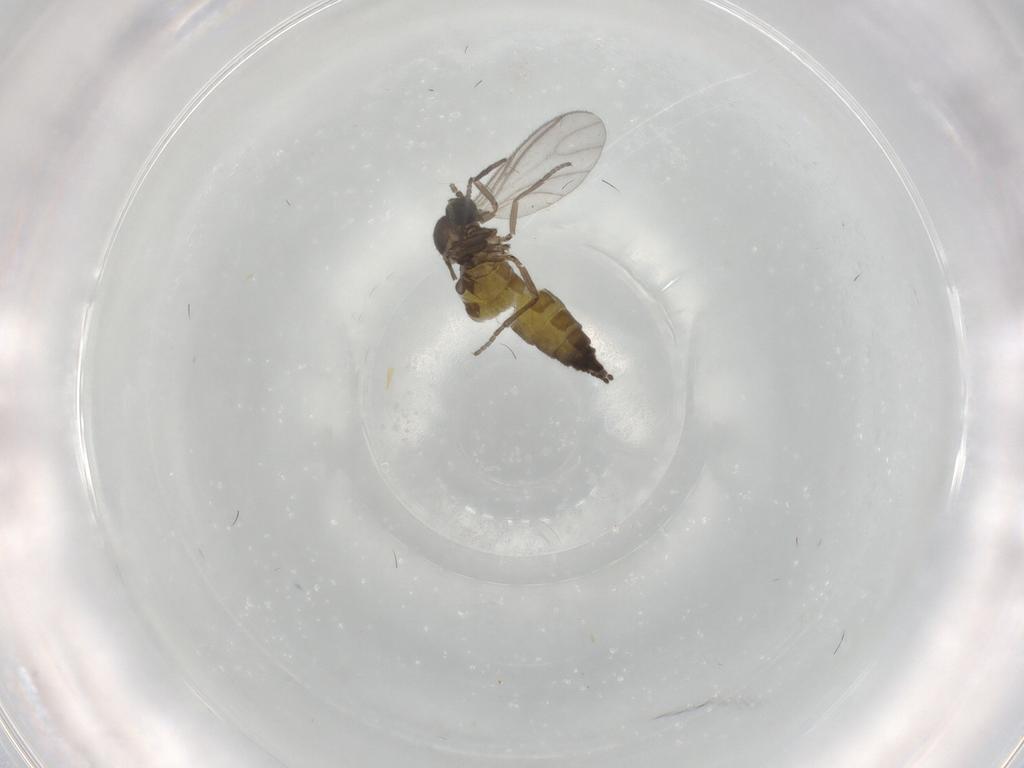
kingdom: Animalia
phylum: Arthropoda
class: Insecta
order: Diptera
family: Sciaridae
